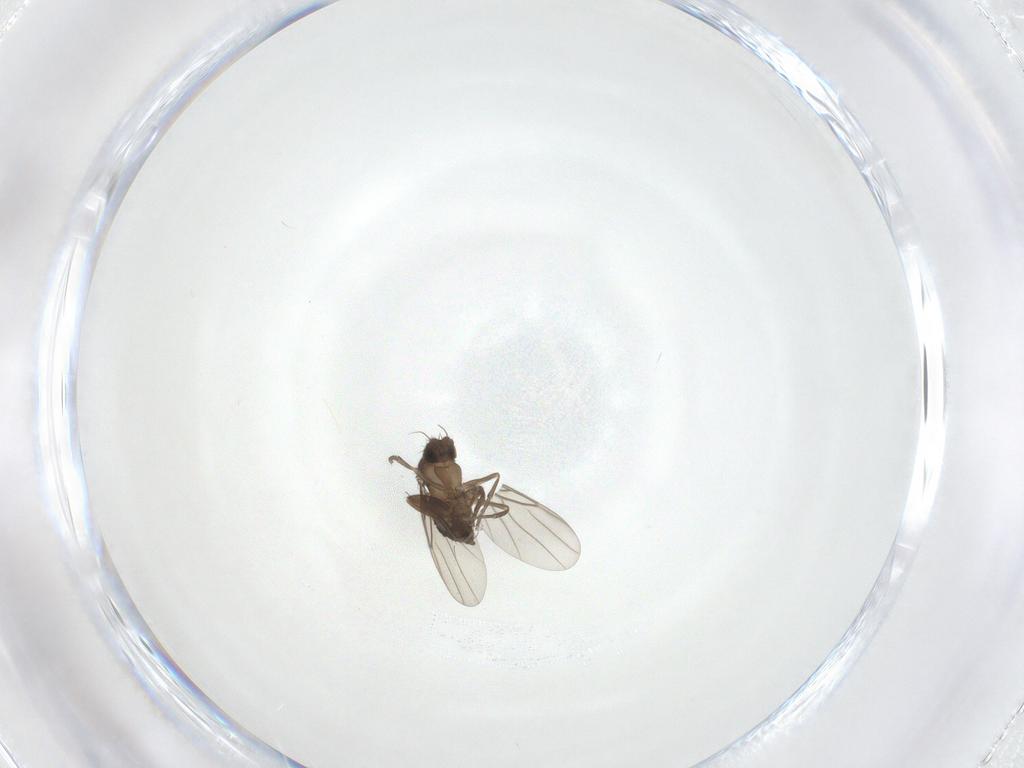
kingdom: Animalia
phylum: Arthropoda
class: Insecta
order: Diptera
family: Phoridae
